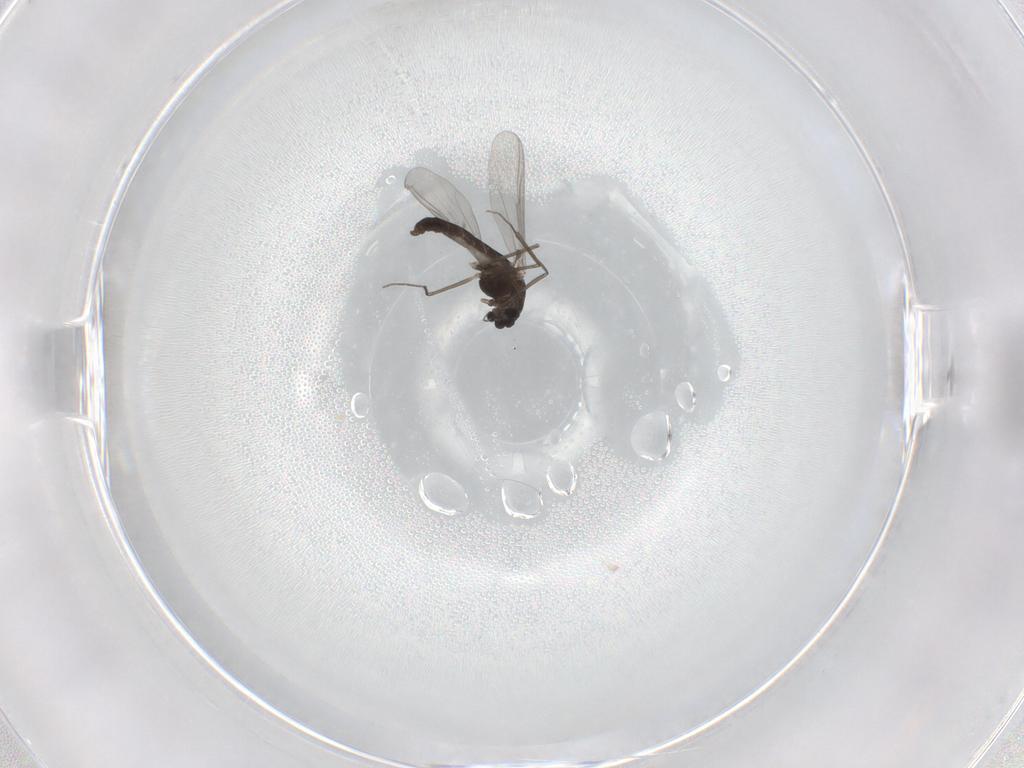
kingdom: Animalia
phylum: Arthropoda
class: Insecta
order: Diptera
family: Chironomidae
